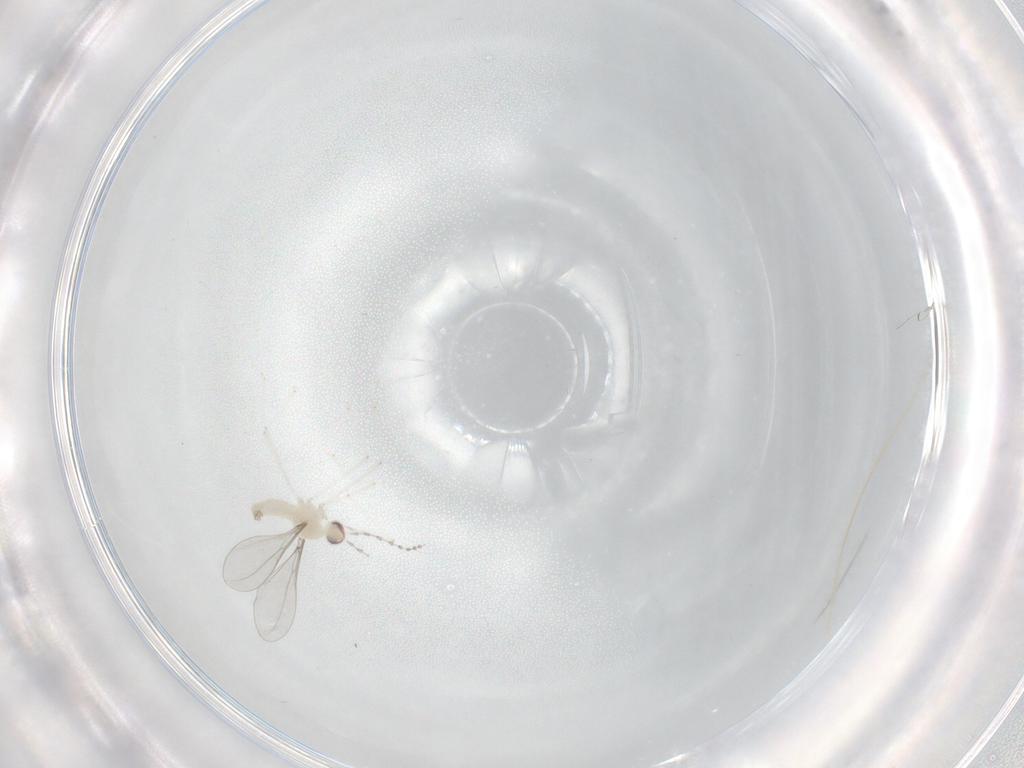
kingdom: Animalia
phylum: Arthropoda
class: Insecta
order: Diptera
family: Cecidomyiidae
